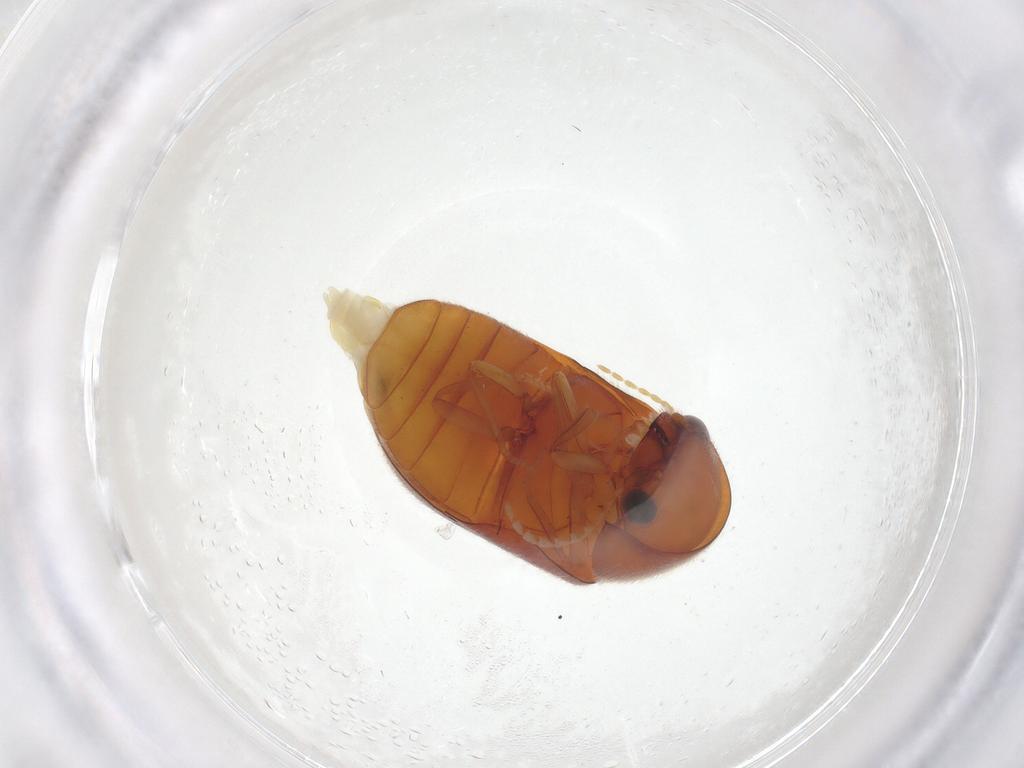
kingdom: Animalia
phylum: Arthropoda
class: Insecta
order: Coleoptera
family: Ptinidae
